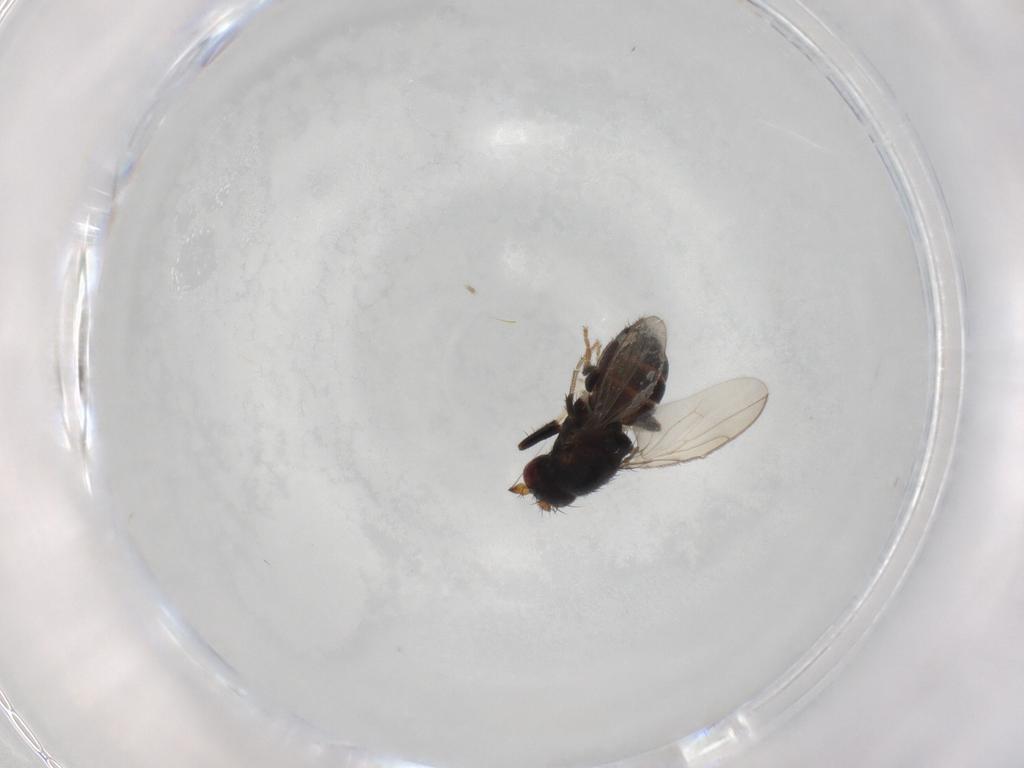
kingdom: Animalia
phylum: Arthropoda
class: Insecta
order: Diptera
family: Sphaeroceridae
